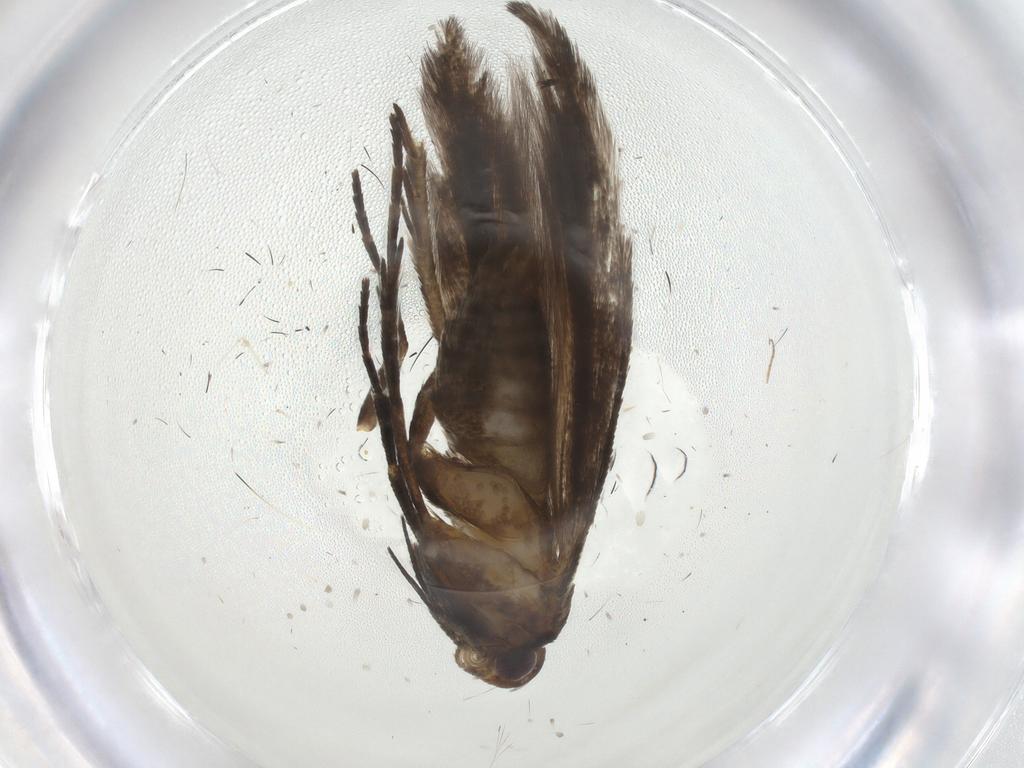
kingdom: Animalia
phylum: Arthropoda
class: Insecta
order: Lepidoptera
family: Gelechiidae
